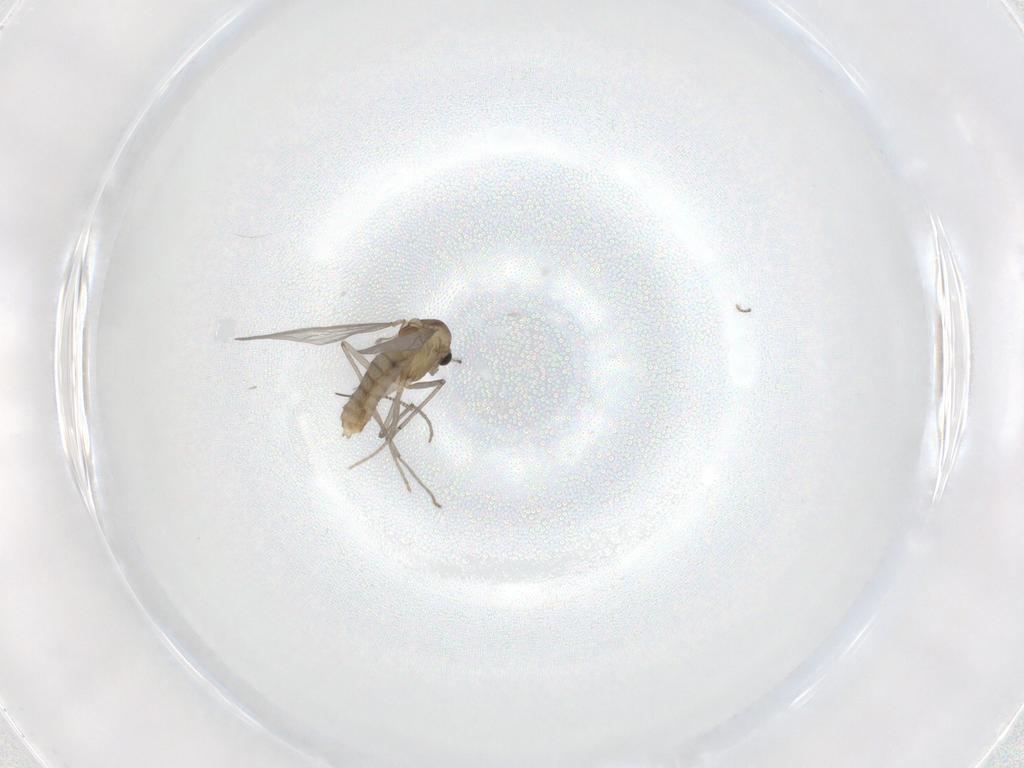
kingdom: Animalia
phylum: Arthropoda
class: Insecta
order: Diptera
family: Chironomidae
